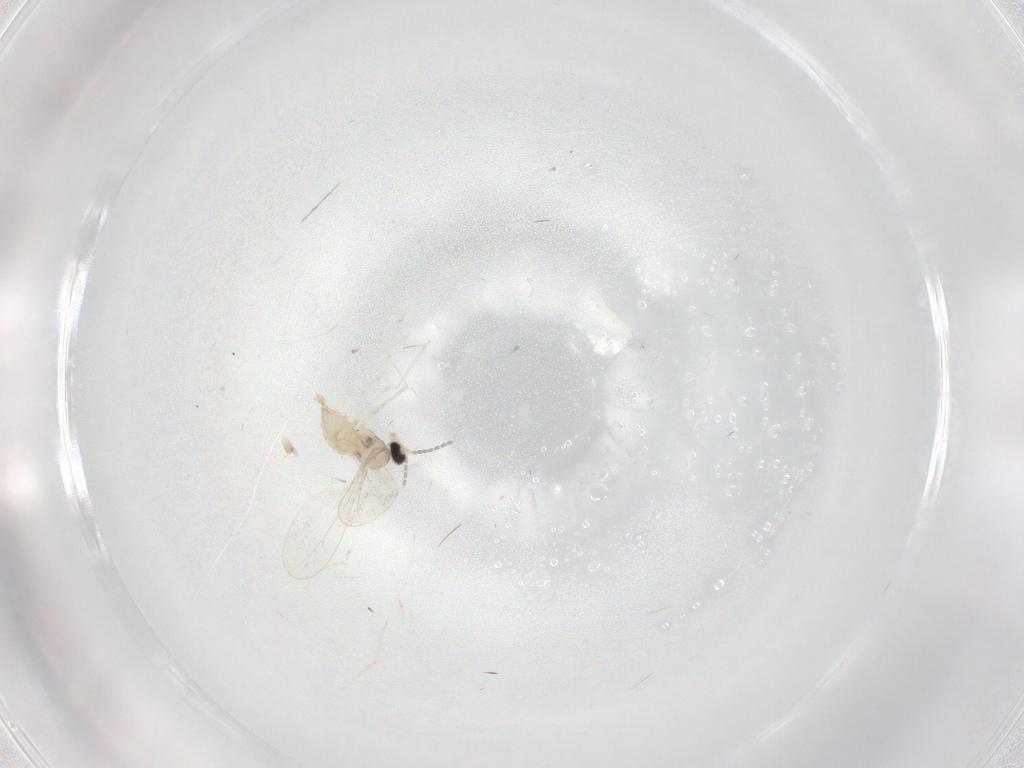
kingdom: Animalia
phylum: Arthropoda
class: Insecta
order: Diptera
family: Cecidomyiidae
